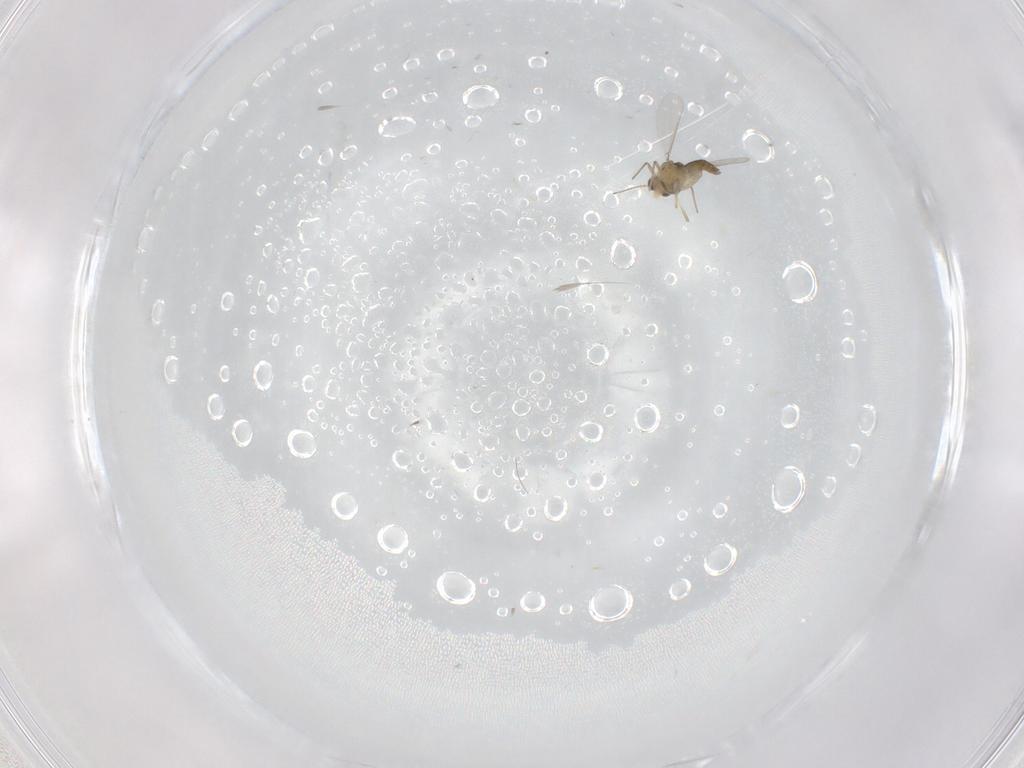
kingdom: Animalia
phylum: Arthropoda
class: Insecta
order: Diptera
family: Chironomidae
